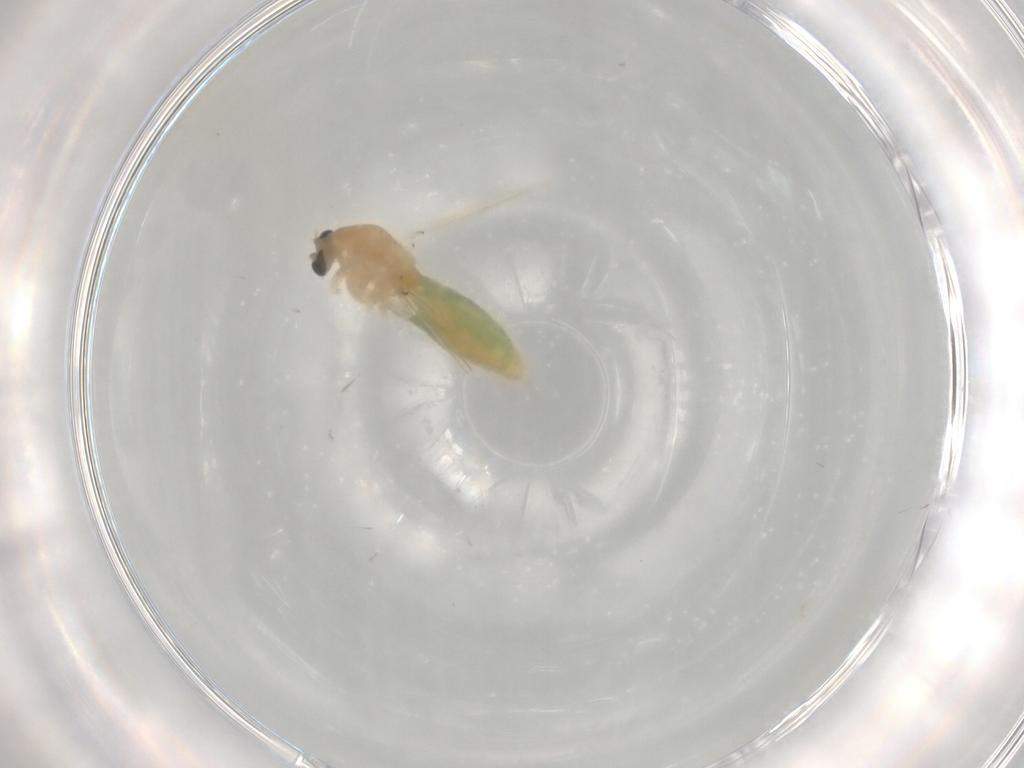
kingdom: Animalia
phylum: Arthropoda
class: Insecta
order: Diptera
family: Chironomidae
